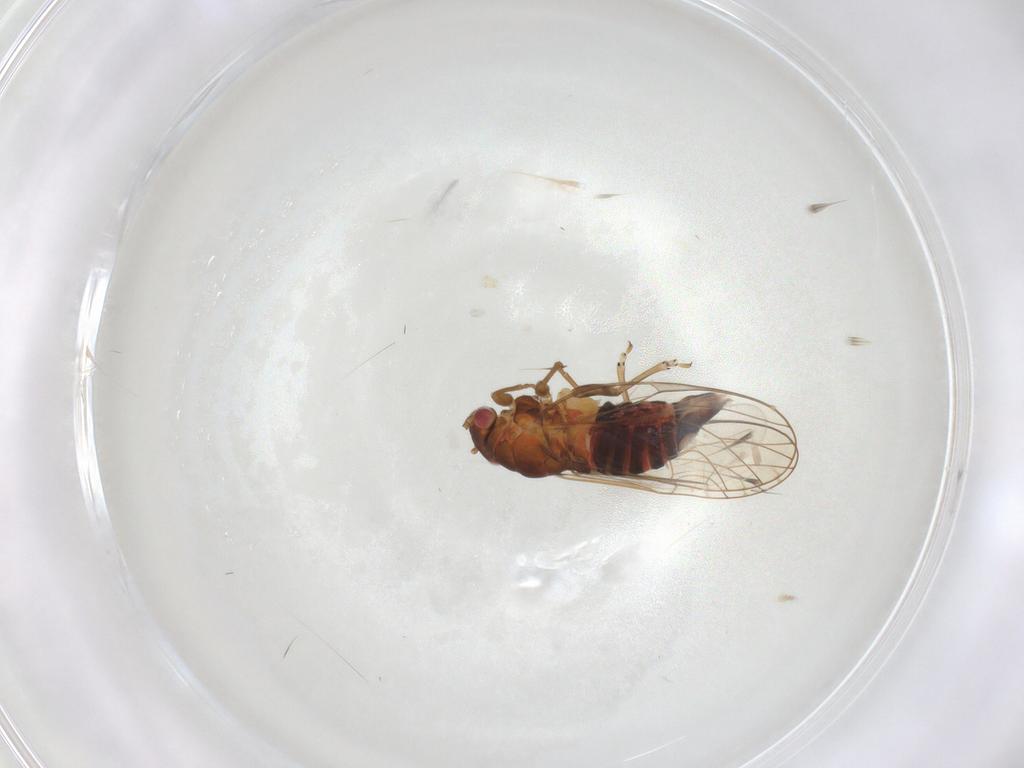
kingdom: Animalia
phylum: Arthropoda
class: Insecta
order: Hemiptera
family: Psyllidae
